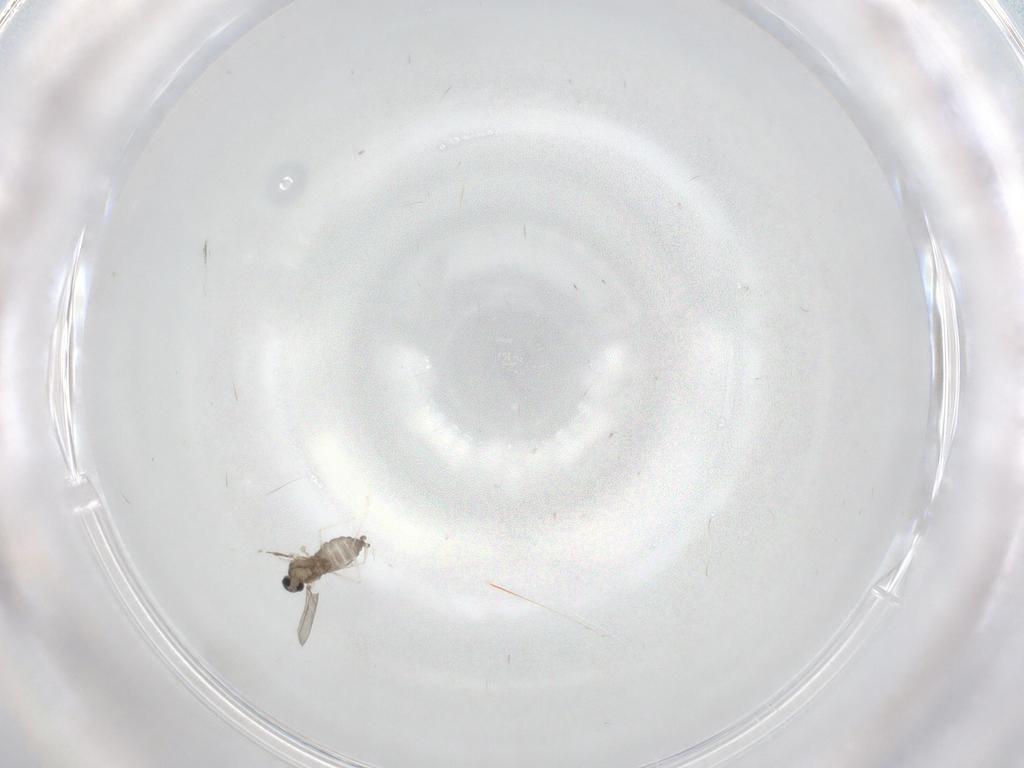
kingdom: Animalia
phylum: Arthropoda
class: Insecta
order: Diptera
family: Cecidomyiidae
